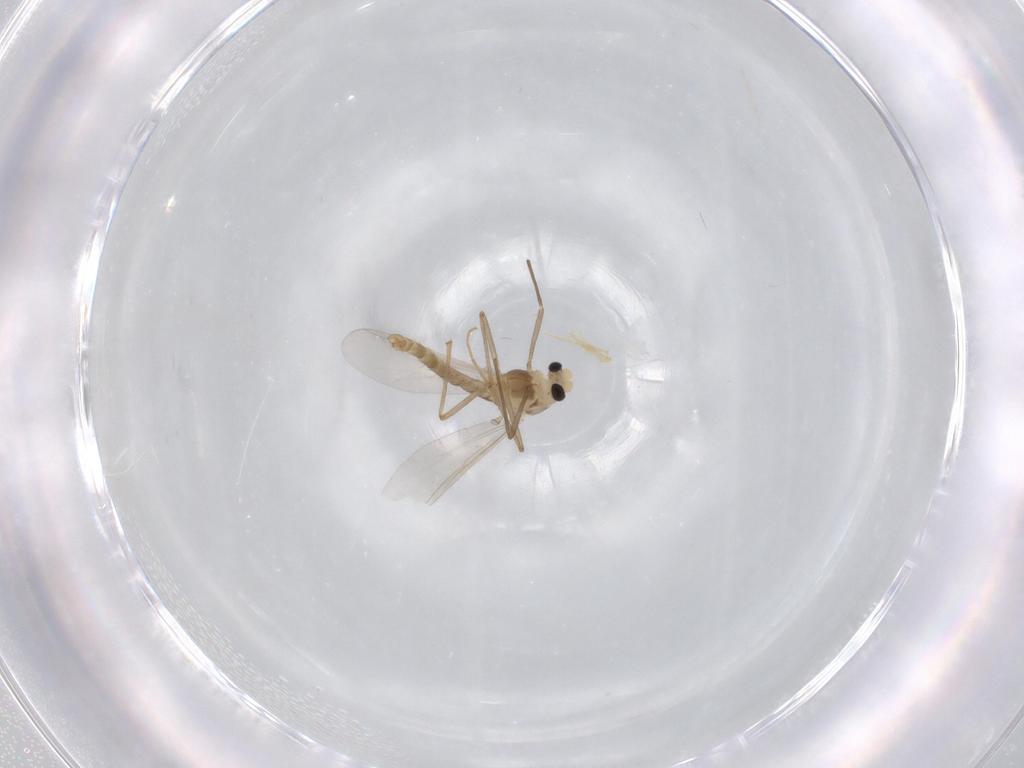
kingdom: Animalia
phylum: Arthropoda
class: Insecta
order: Diptera
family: Chironomidae
